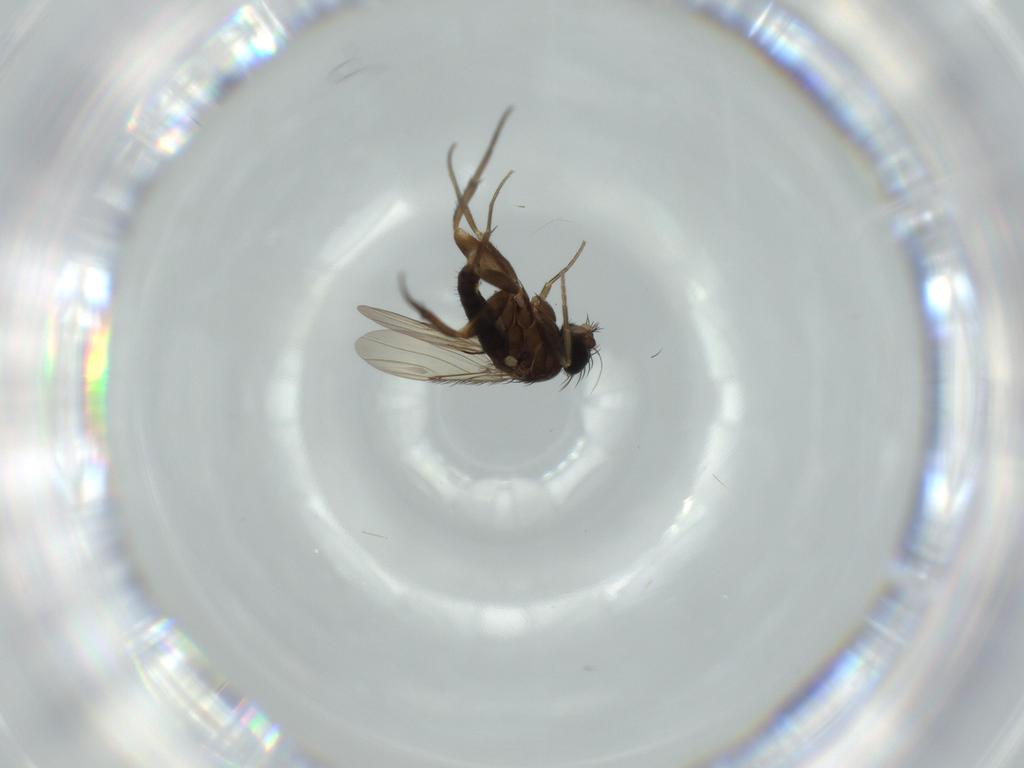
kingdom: Animalia
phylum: Arthropoda
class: Insecta
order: Diptera
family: Phoridae
